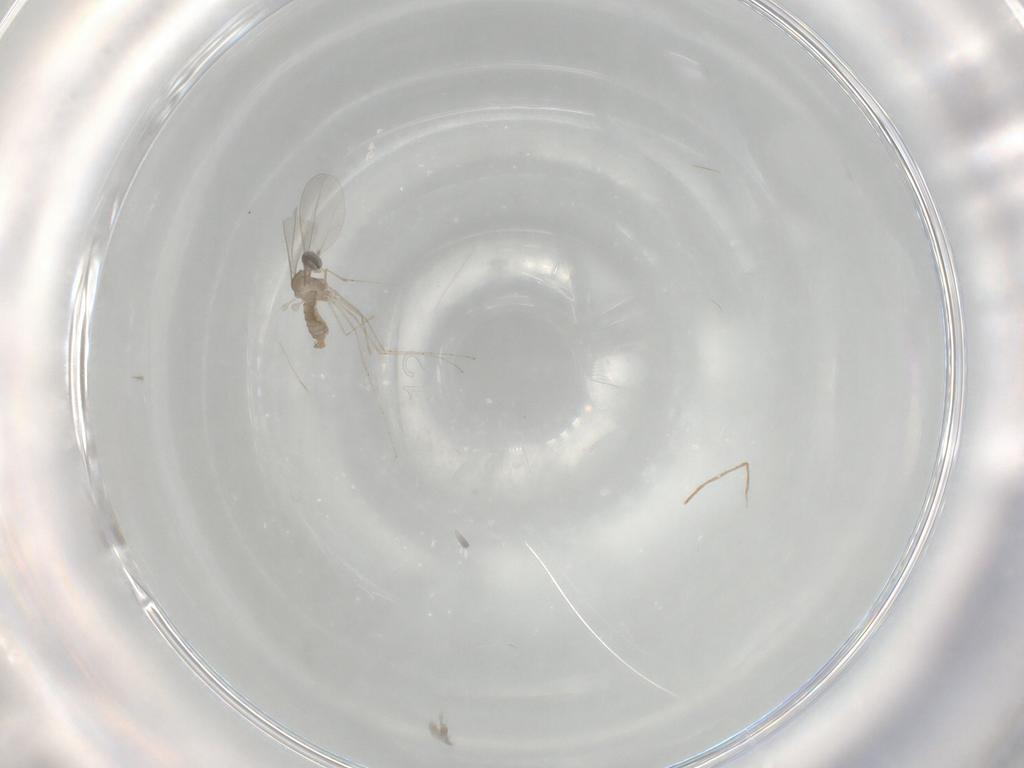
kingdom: Animalia
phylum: Arthropoda
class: Insecta
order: Diptera
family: Cecidomyiidae
